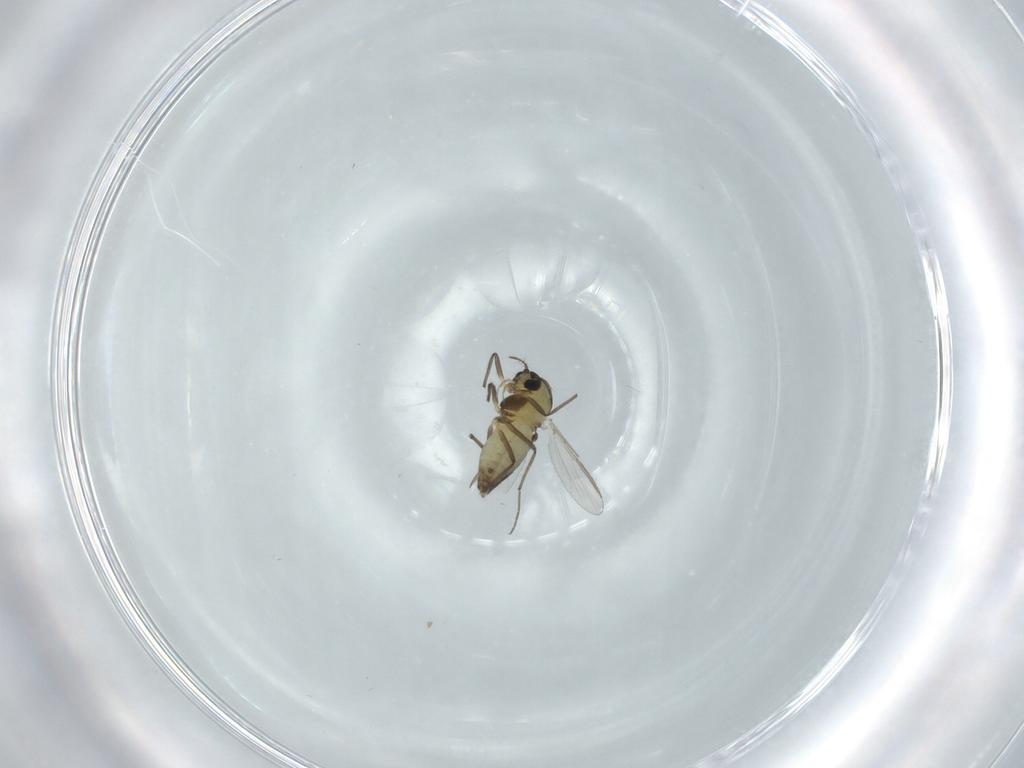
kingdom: Animalia
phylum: Arthropoda
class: Insecta
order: Diptera
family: Chironomidae
